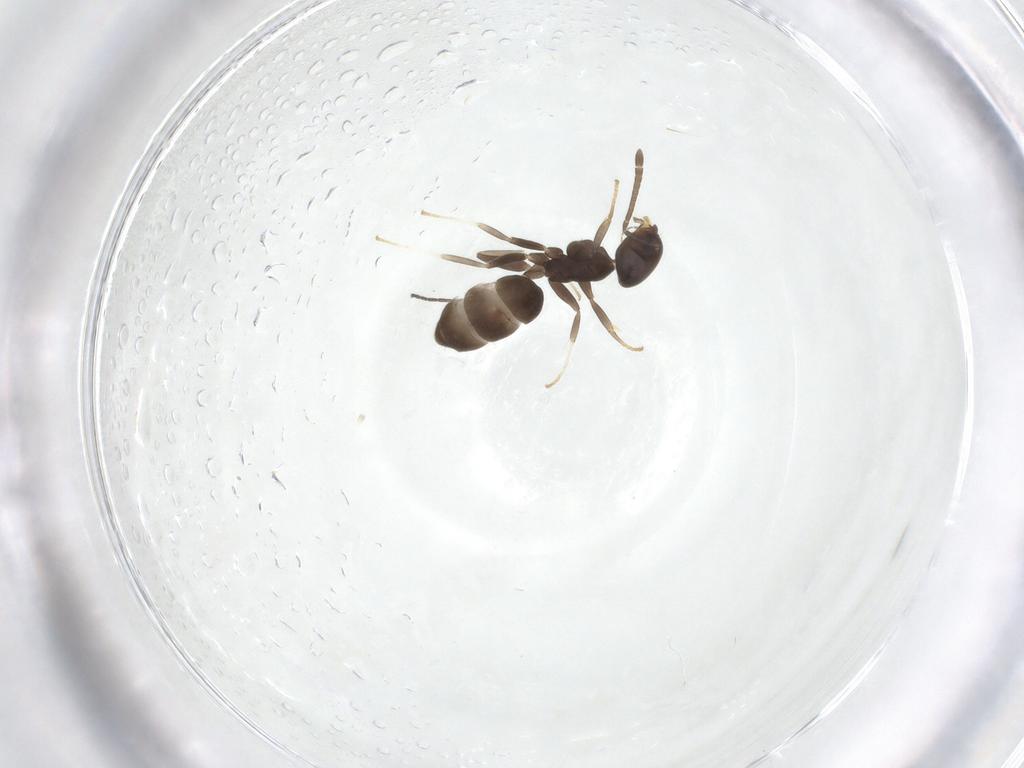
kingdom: Animalia
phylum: Arthropoda
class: Insecta
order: Hymenoptera
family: Formicidae
